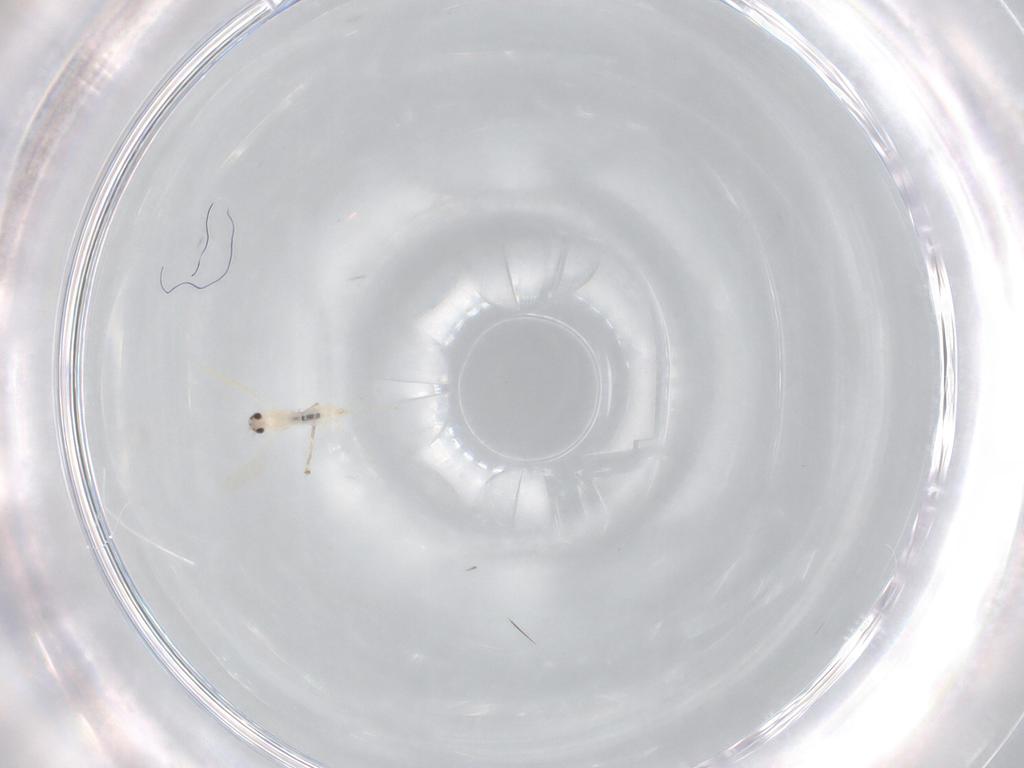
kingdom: Animalia
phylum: Arthropoda
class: Insecta
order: Diptera
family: Cecidomyiidae
